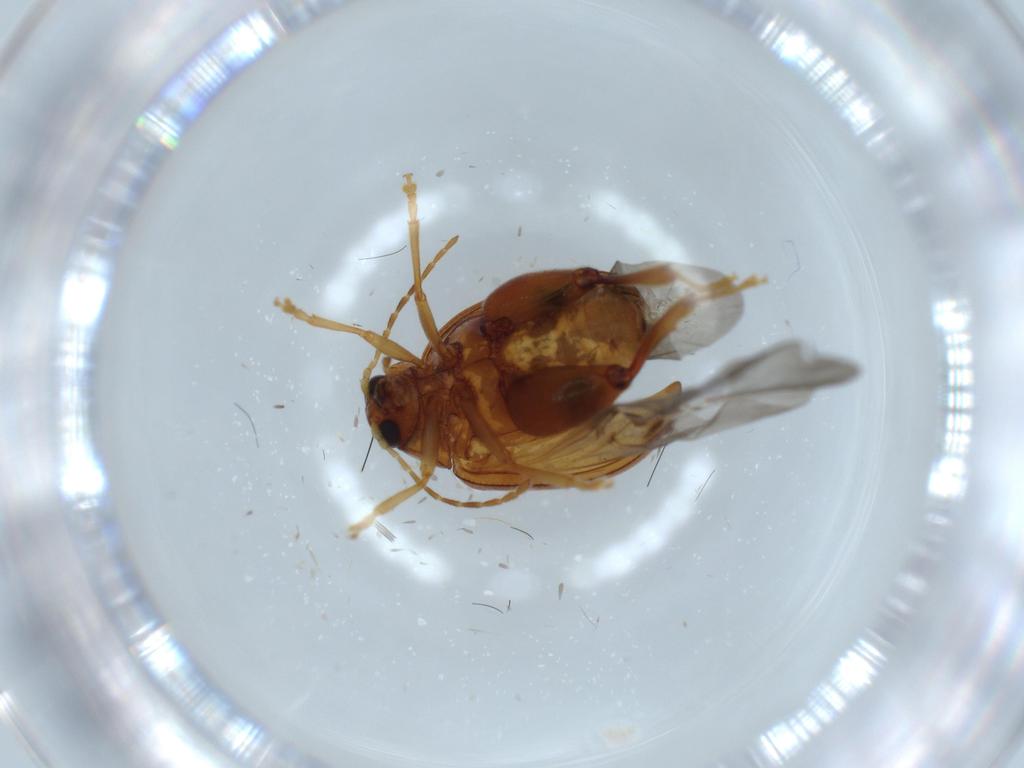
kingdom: Animalia
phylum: Arthropoda
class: Insecta
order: Coleoptera
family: Chrysomelidae
